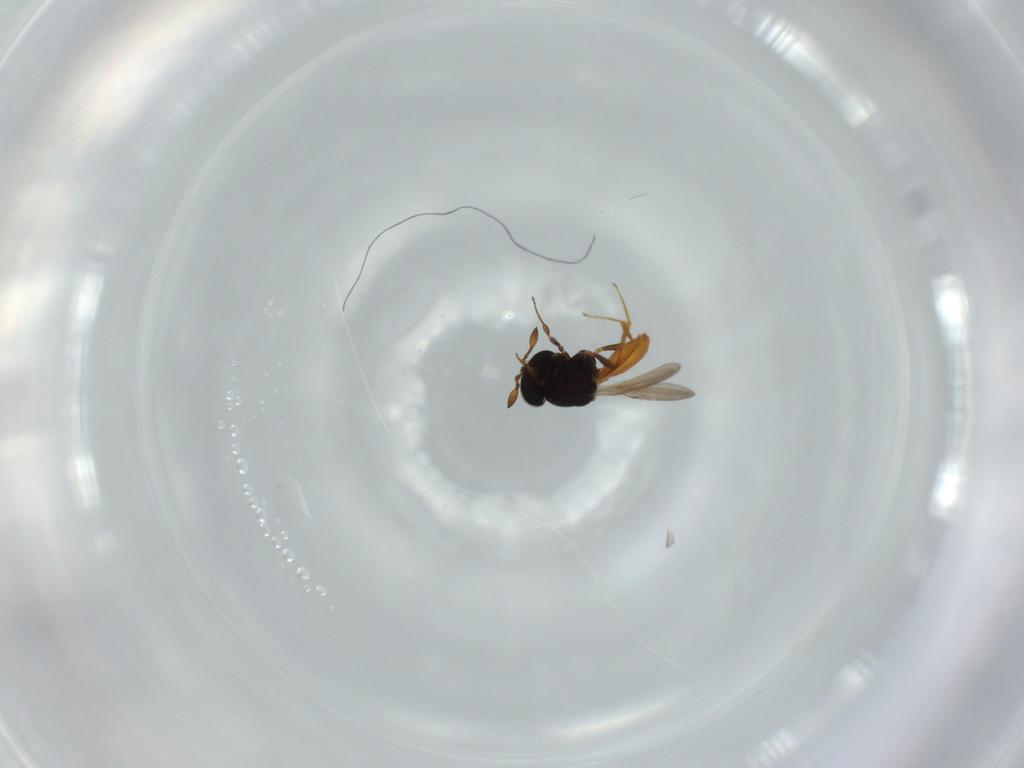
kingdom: Animalia
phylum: Arthropoda
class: Insecta
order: Hymenoptera
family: Scelionidae
